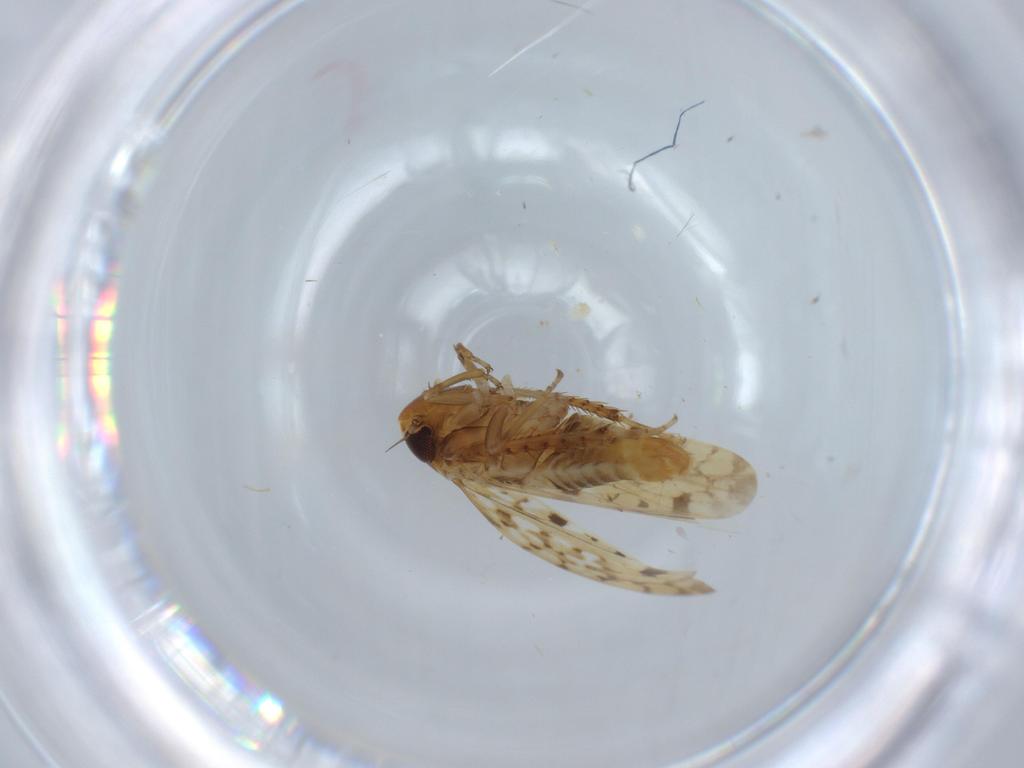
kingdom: Animalia
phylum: Arthropoda
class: Insecta
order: Hemiptera
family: Cicadellidae
